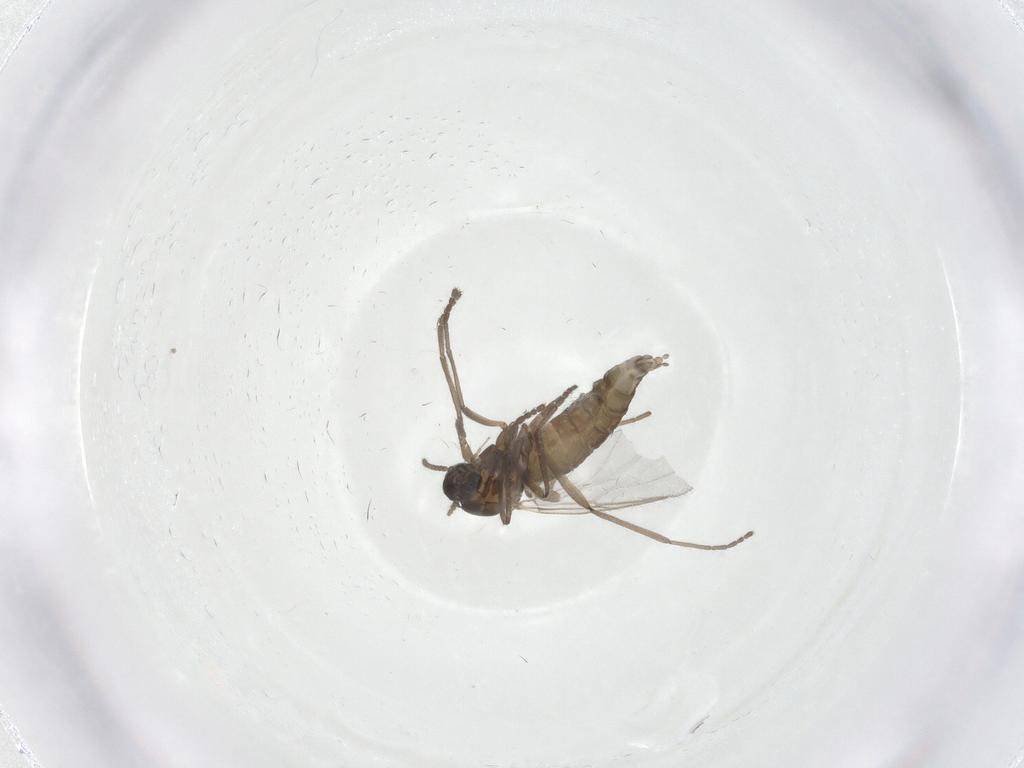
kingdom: Animalia
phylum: Arthropoda
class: Insecta
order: Diptera
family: Cecidomyiidae
